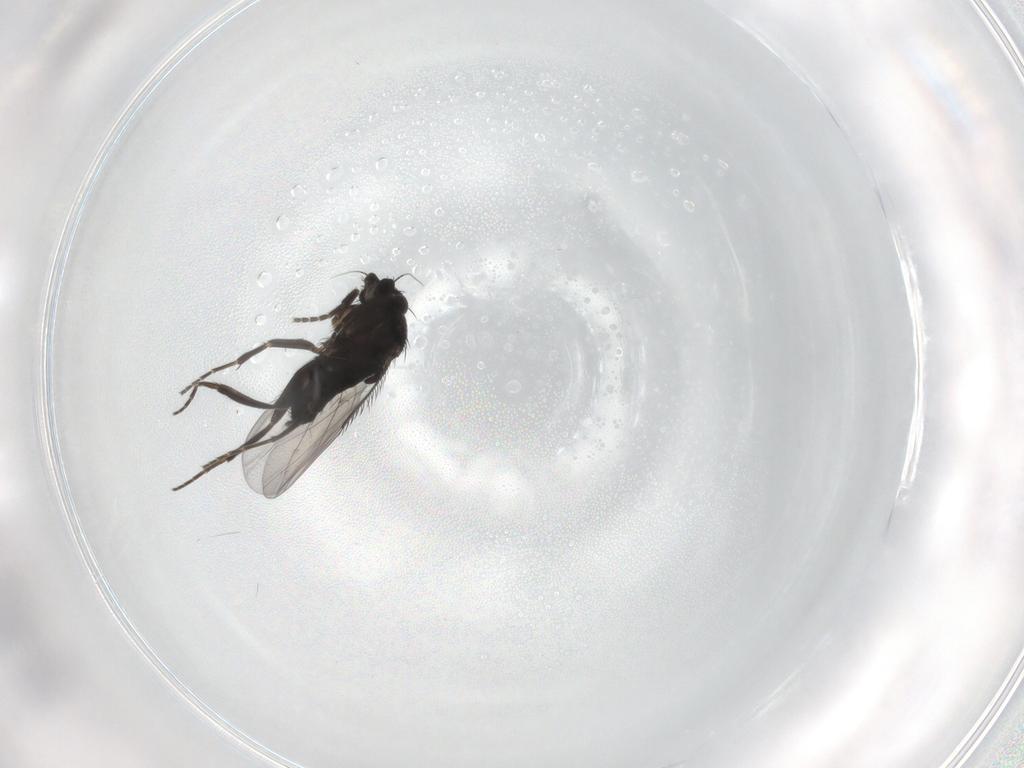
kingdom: Animalia
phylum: Arthropoda
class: Insecta
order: Diptera
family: Phoridae
